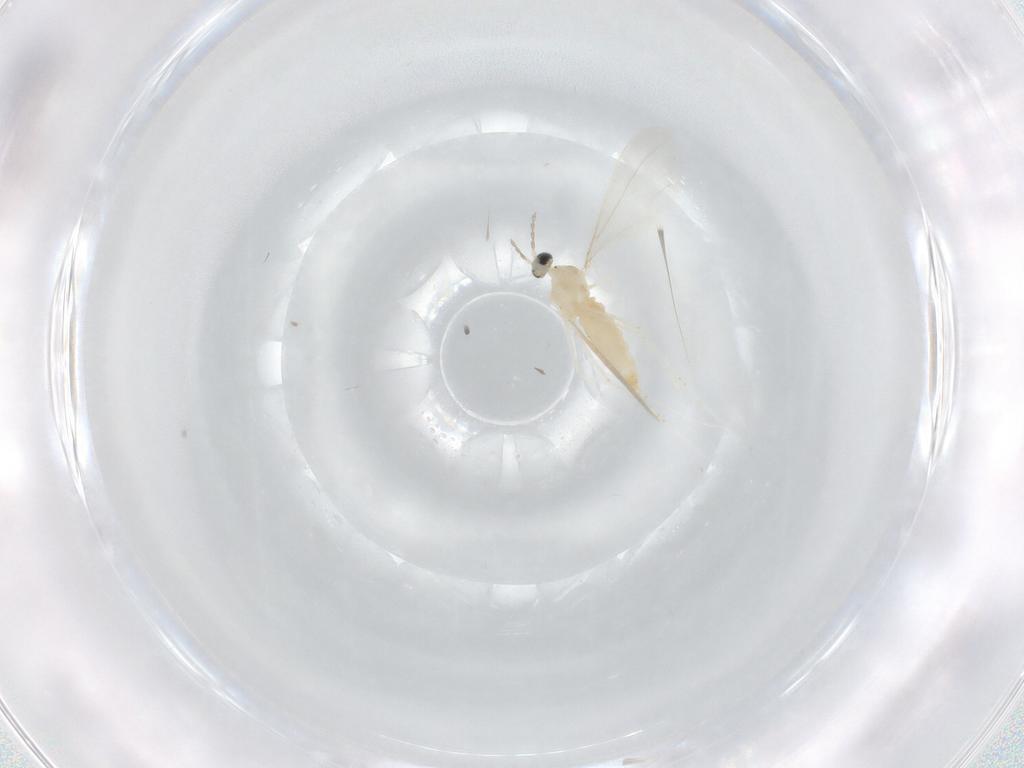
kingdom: Animalia
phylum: Arthropoda
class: Insecta
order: Diptera
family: Cecidomyiidae
